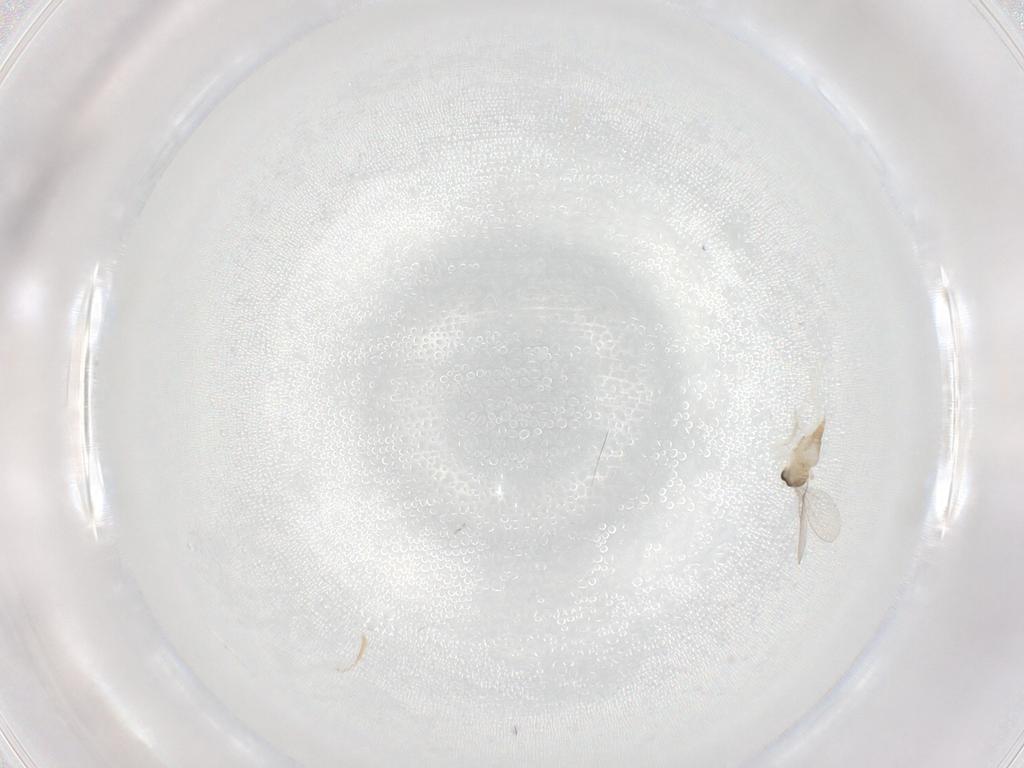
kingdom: Animalia
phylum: Arthropoda
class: Insecta
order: Diptera
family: Cecidomyiidae
